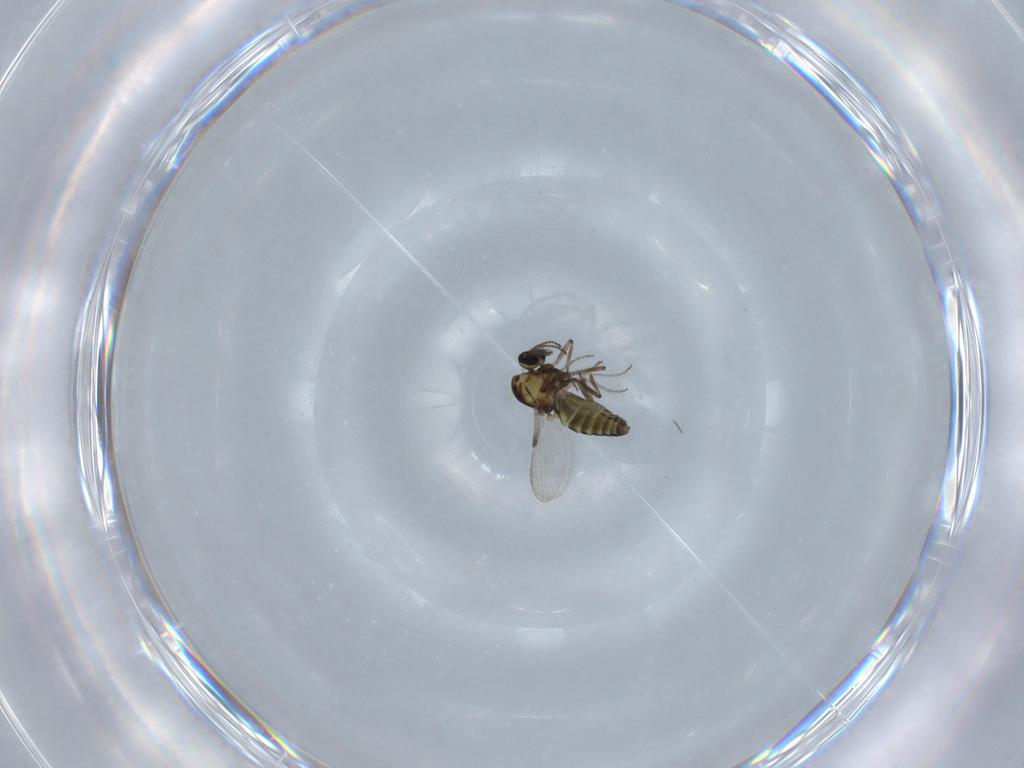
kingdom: Animalia
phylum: Arthropoda
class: Insecta
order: Diptera
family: Ceratopogonidae
